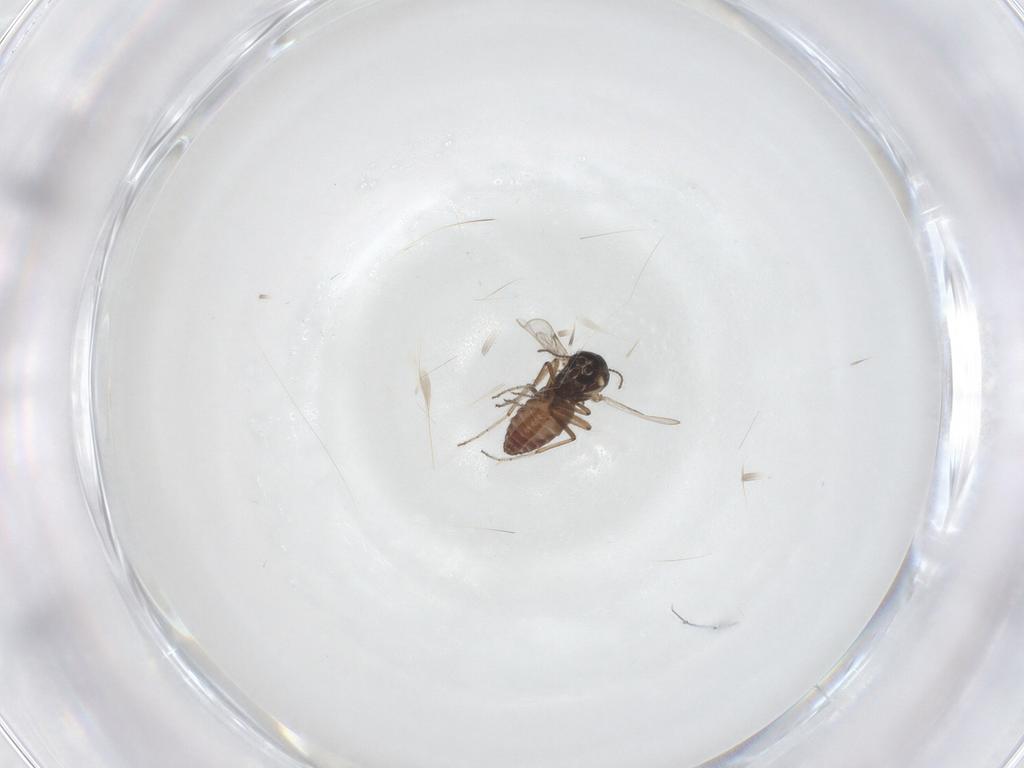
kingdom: Animalia
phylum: Arthropoda
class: Insecta
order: Diptera
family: Ceratopogonidae
